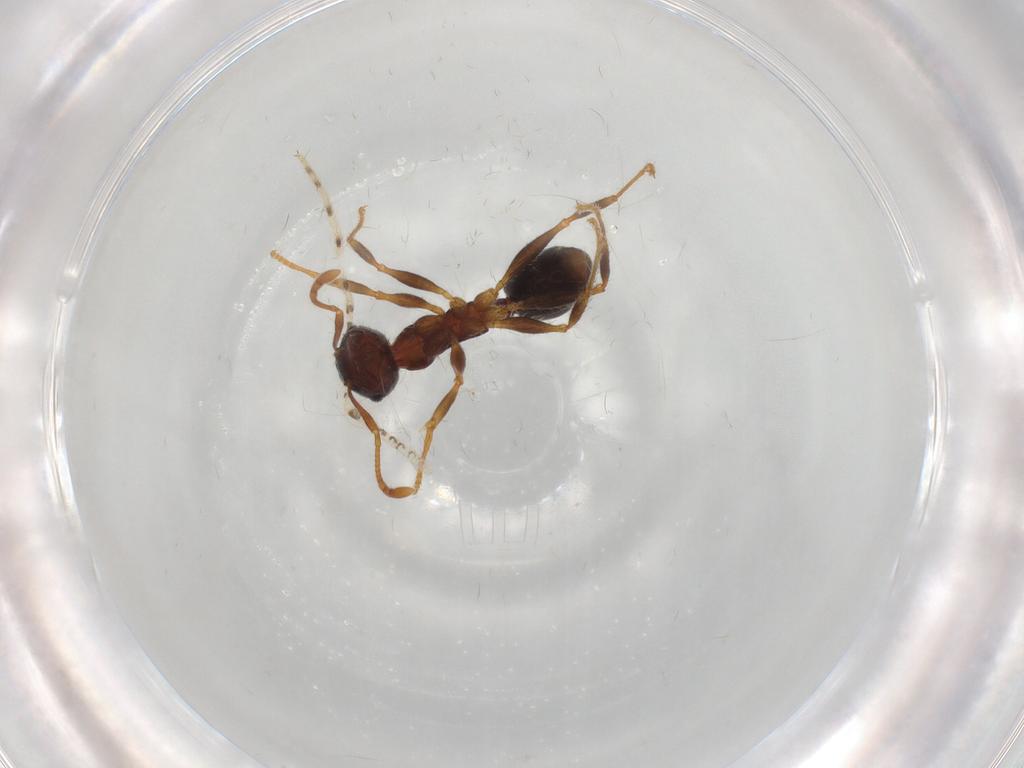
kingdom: Animalia
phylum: Arthropoda
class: Insecta
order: Hymenoptera
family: Formicidae
